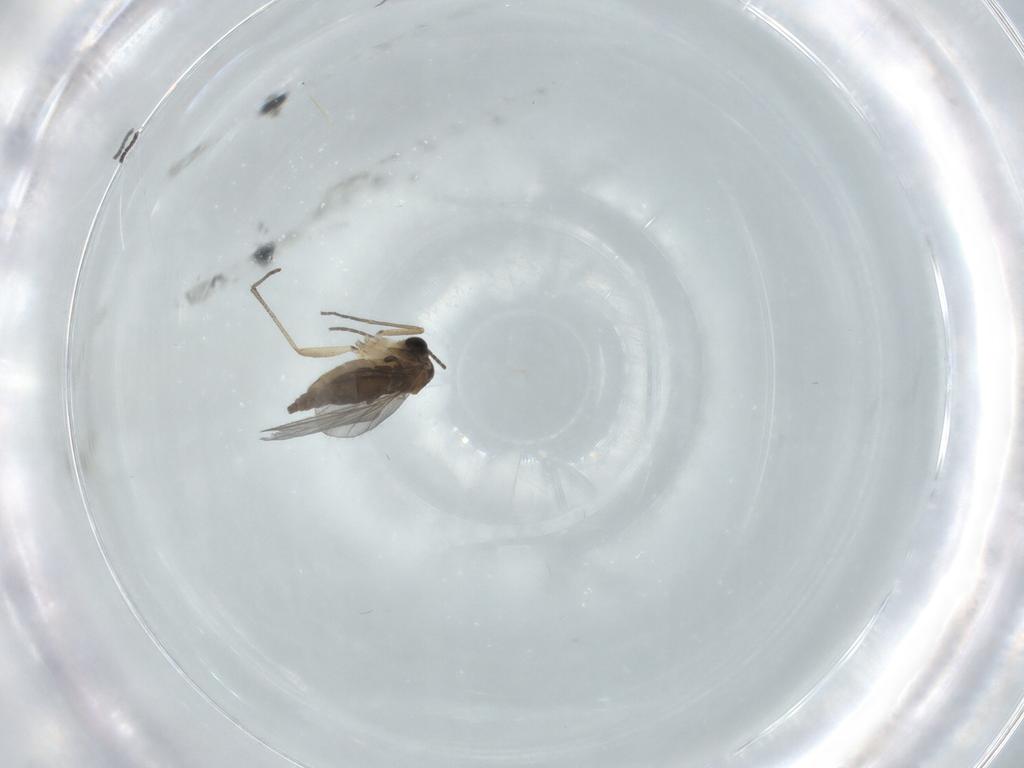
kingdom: Animalia
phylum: Arthropoda
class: Insecta
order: Diptera
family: Sciaridae
